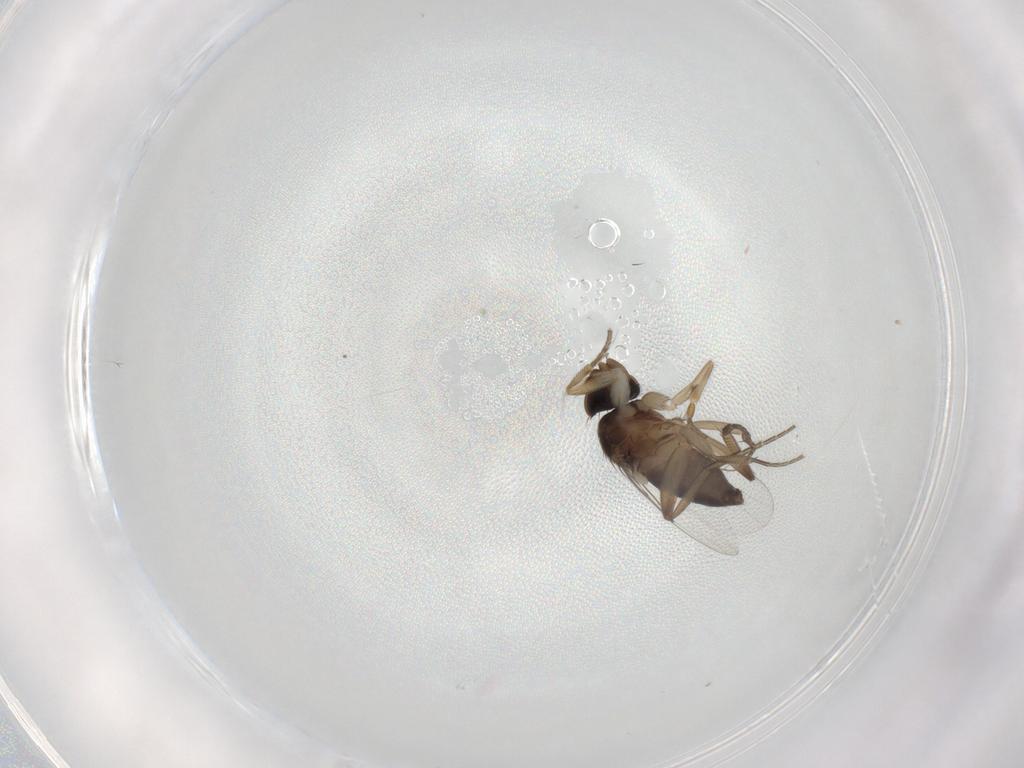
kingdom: Animalia
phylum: Arthropoda
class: Insecta
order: Diptera
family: Phoridae
